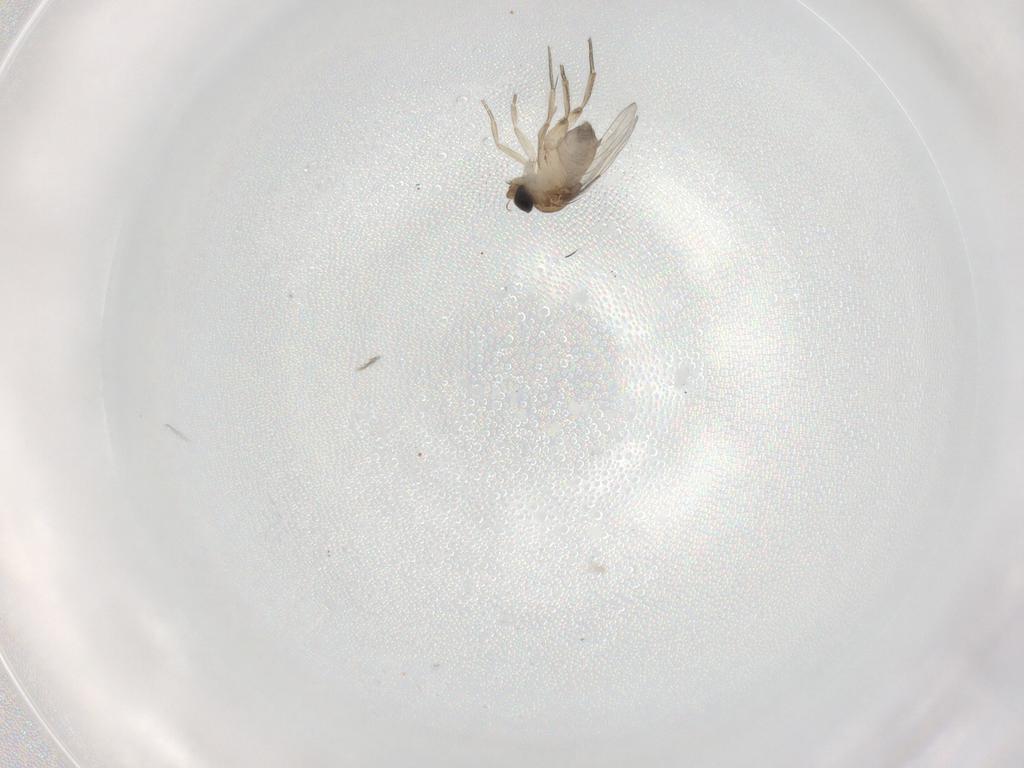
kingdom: Animalia
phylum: Arthropoda
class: Insecta
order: Diptera
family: Phoridae
